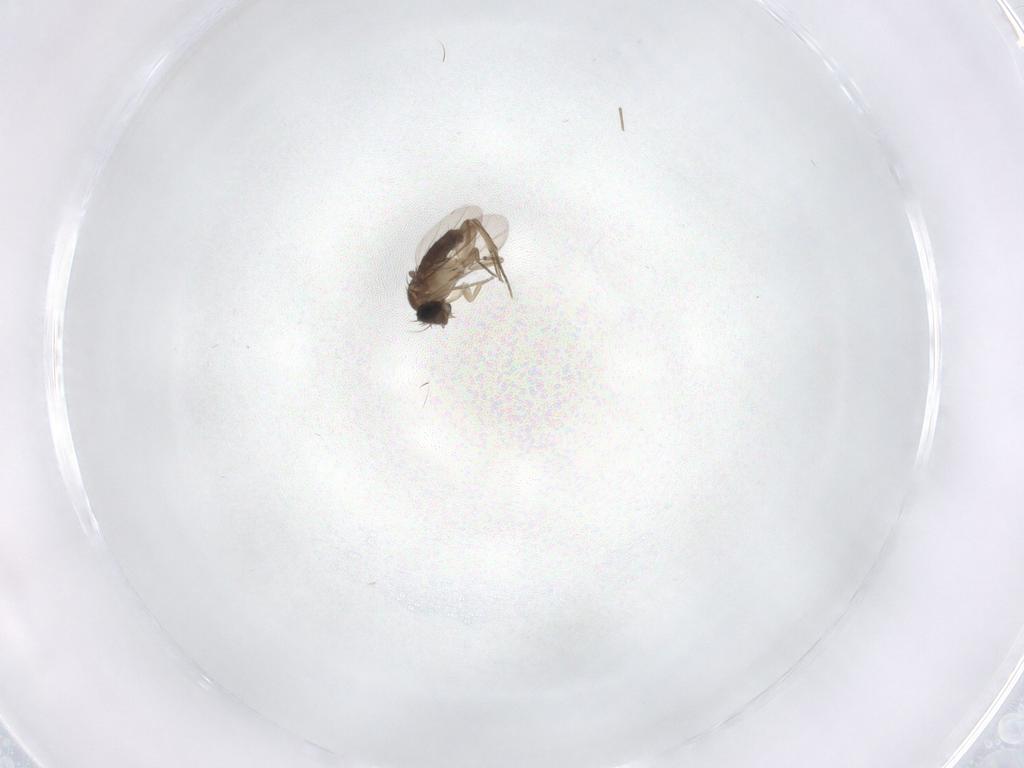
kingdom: Animalia
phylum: Arthropoda
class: Insecta
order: Diptera
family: Phoridae
